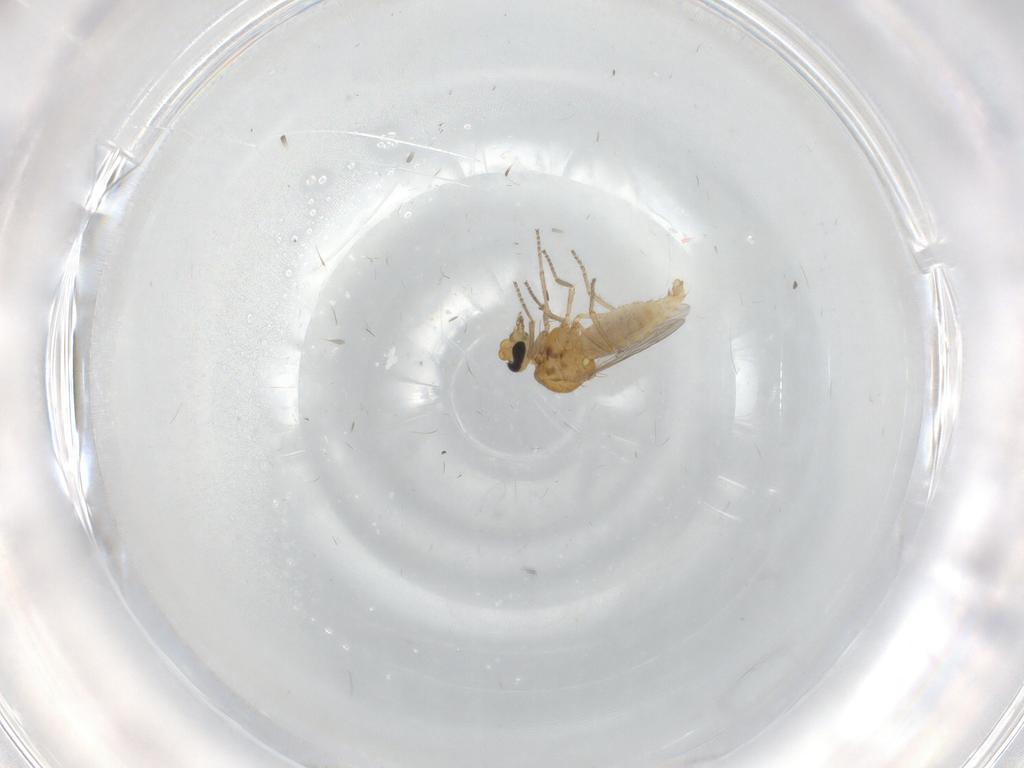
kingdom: Animalia
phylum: Arthropoda
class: Insecta
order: Diptera
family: Ceratopogonidae
